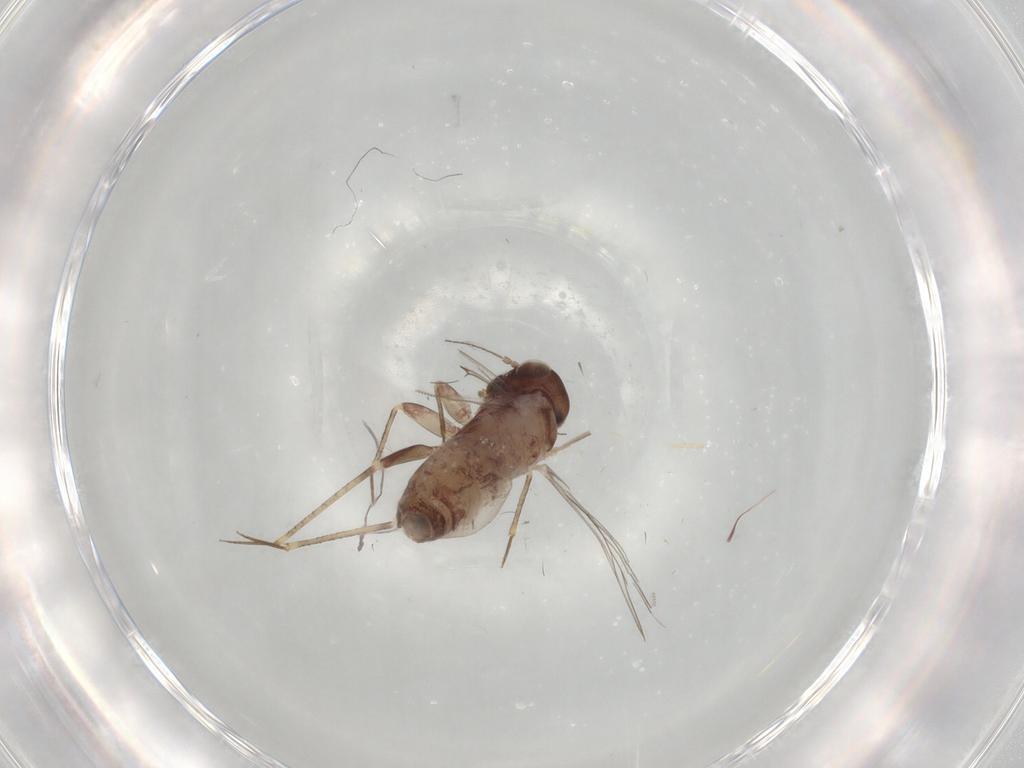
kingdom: Animalia
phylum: Arthropoda
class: Insecta
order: Psocodea
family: Lepidopsocidae
